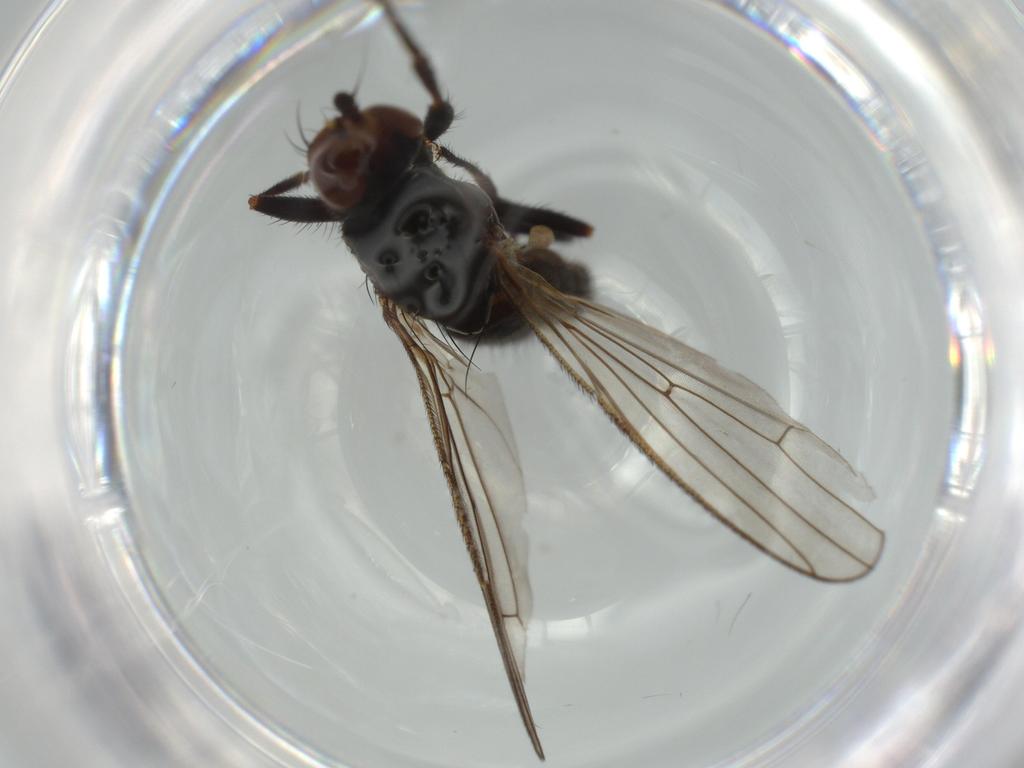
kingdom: Animalia
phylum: Arthropoda
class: Insecta
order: Diptera
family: Heleomyzidae
